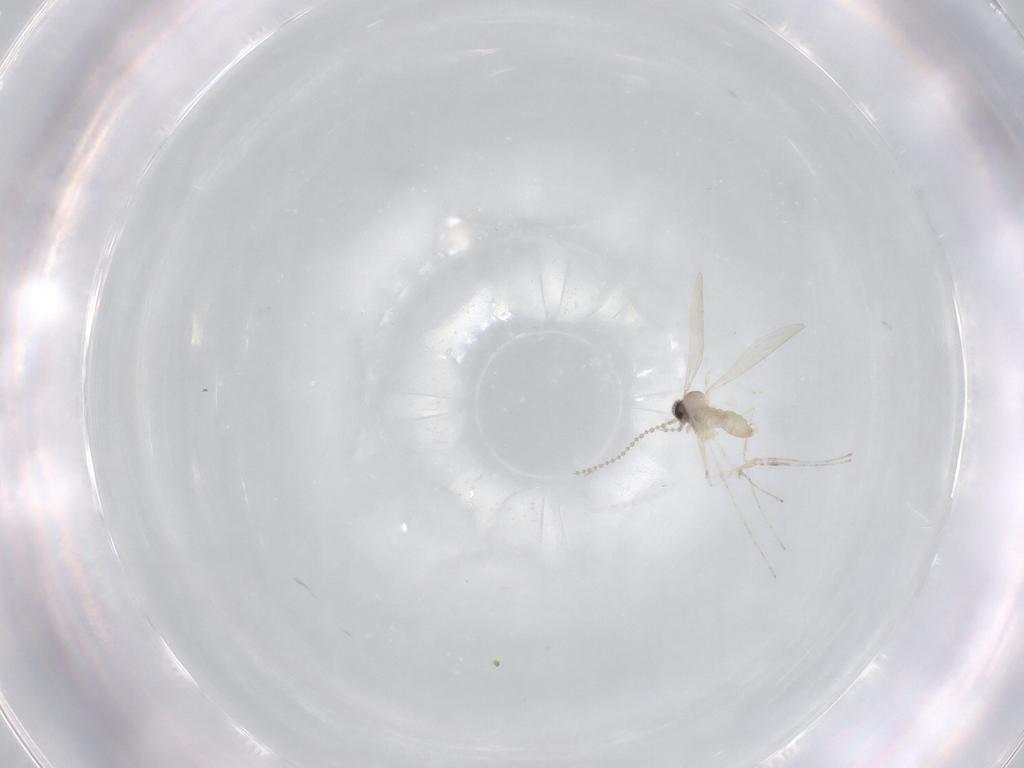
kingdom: Animalia
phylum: Arthropoda
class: Insecta
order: Diptera
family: Cecidomyiidae
